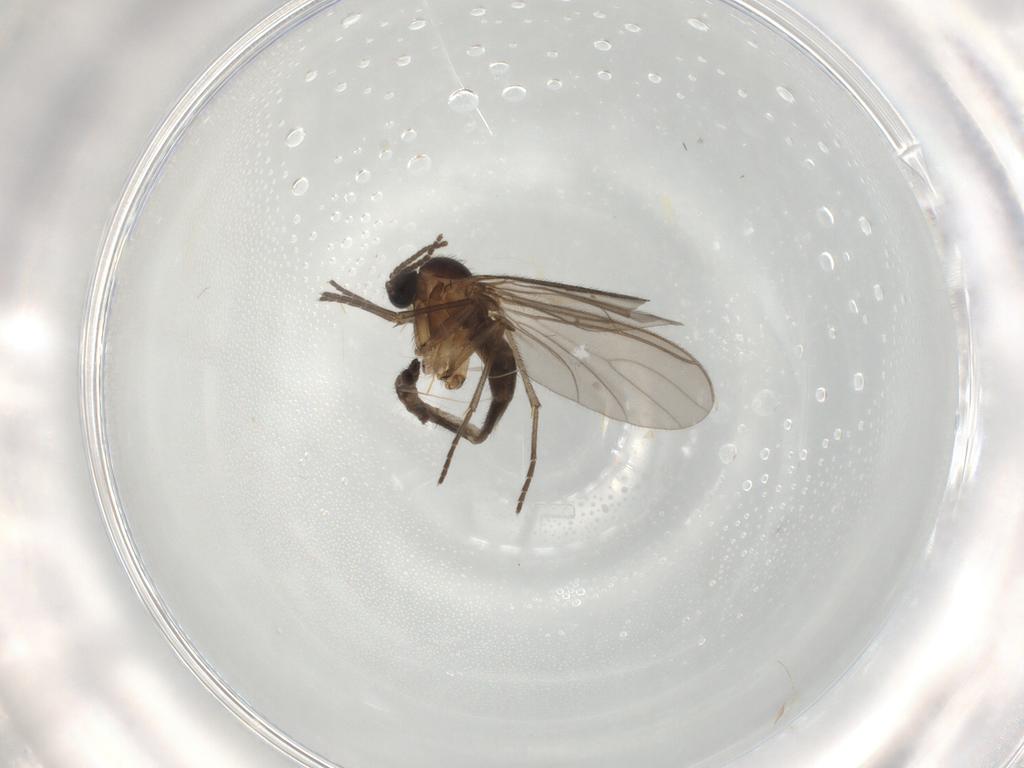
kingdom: Animalia
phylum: Arthropoda
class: Insecta
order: Diptera
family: Sciaridae
